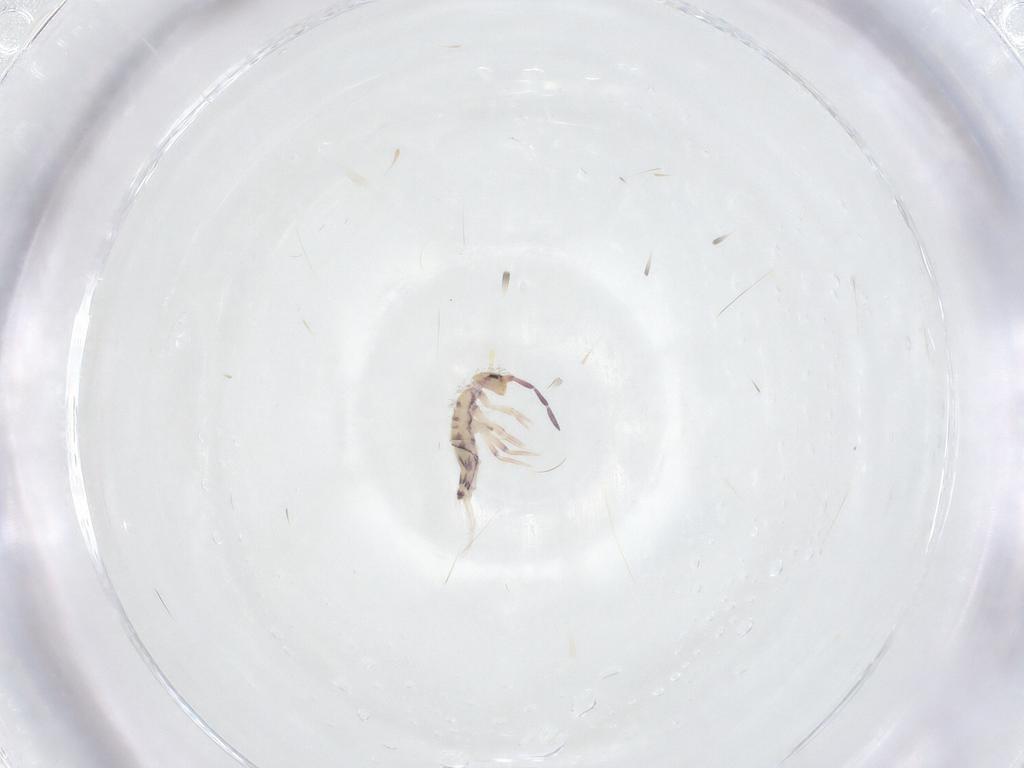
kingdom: Animalia
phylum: Arthropoda
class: Collembola
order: Entomobryomorpha
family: Entomobryidae
